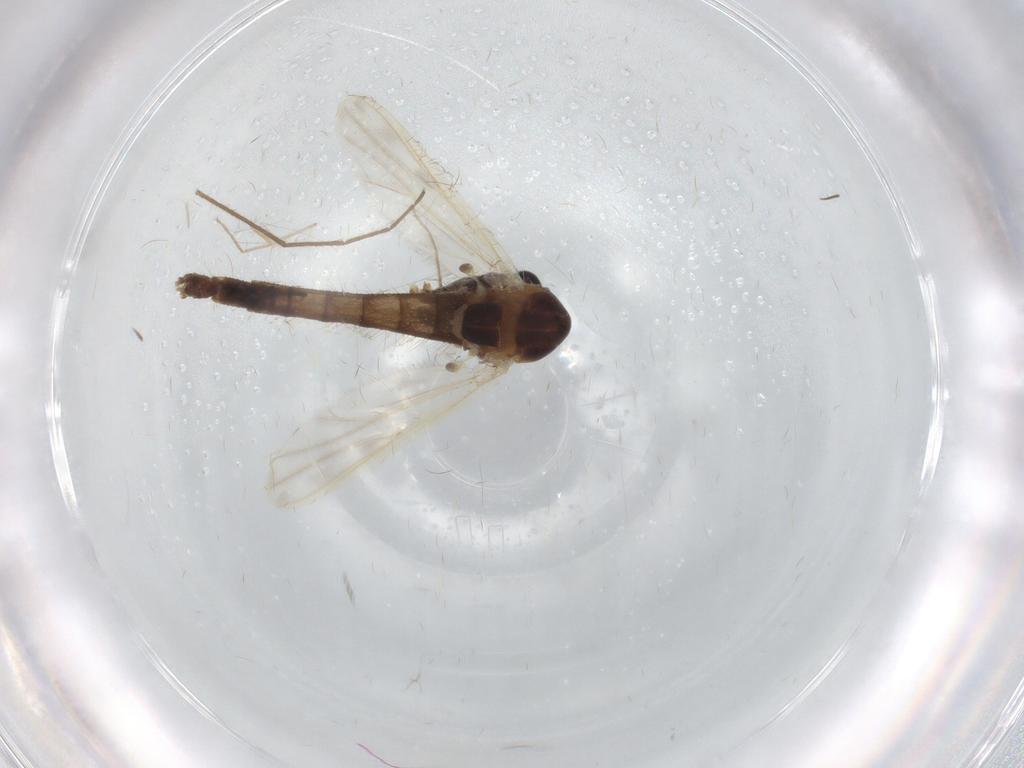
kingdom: Animalia
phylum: Arthropoda
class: Insecta
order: Diptera
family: Chironomidae
